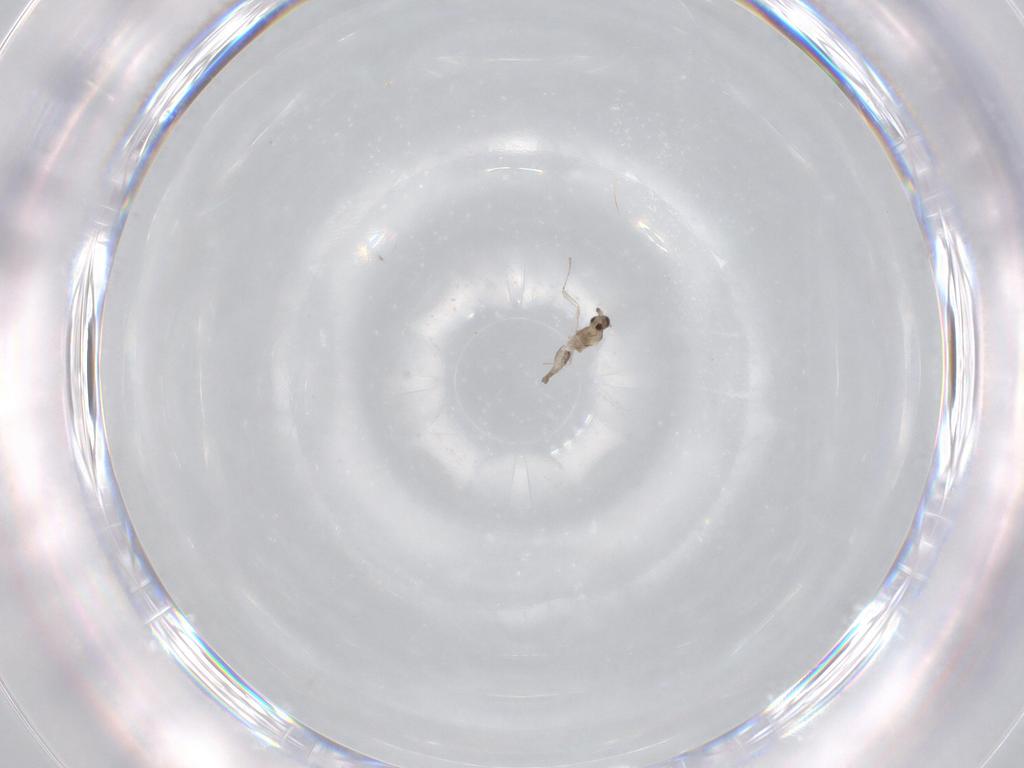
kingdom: Animalia
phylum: Arthropoda
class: Insecta
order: Diptera
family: Cecidomyiidae
